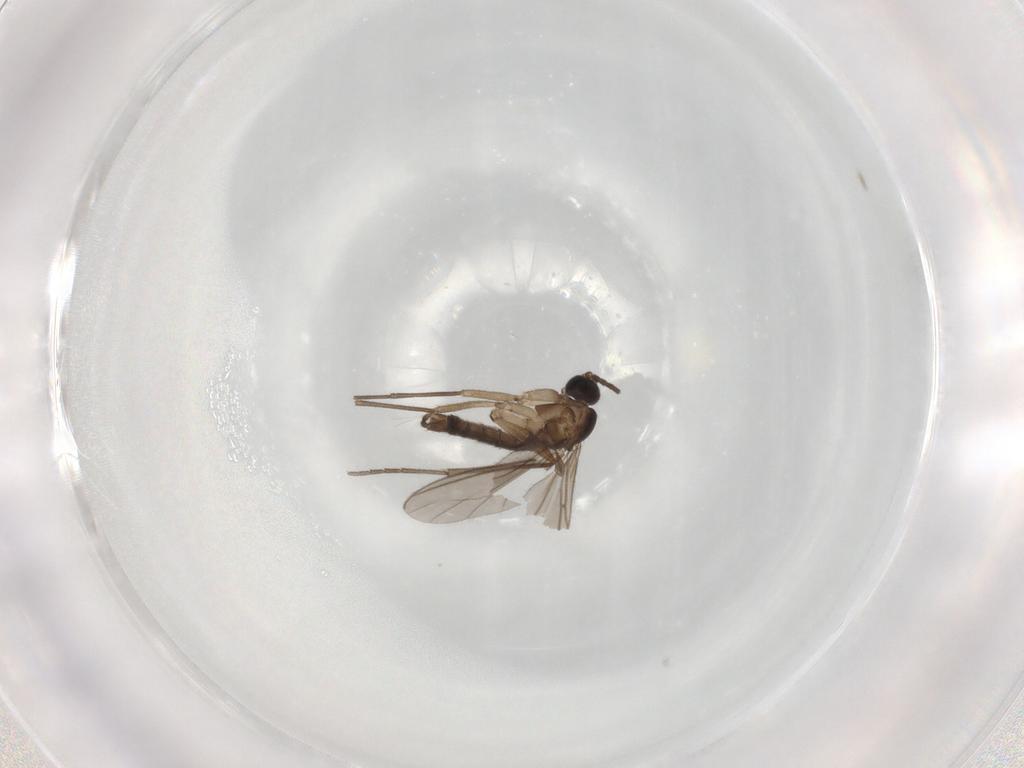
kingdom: Animalia
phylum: Arthropoda
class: Insecta
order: Diptera
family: Sciaridae
